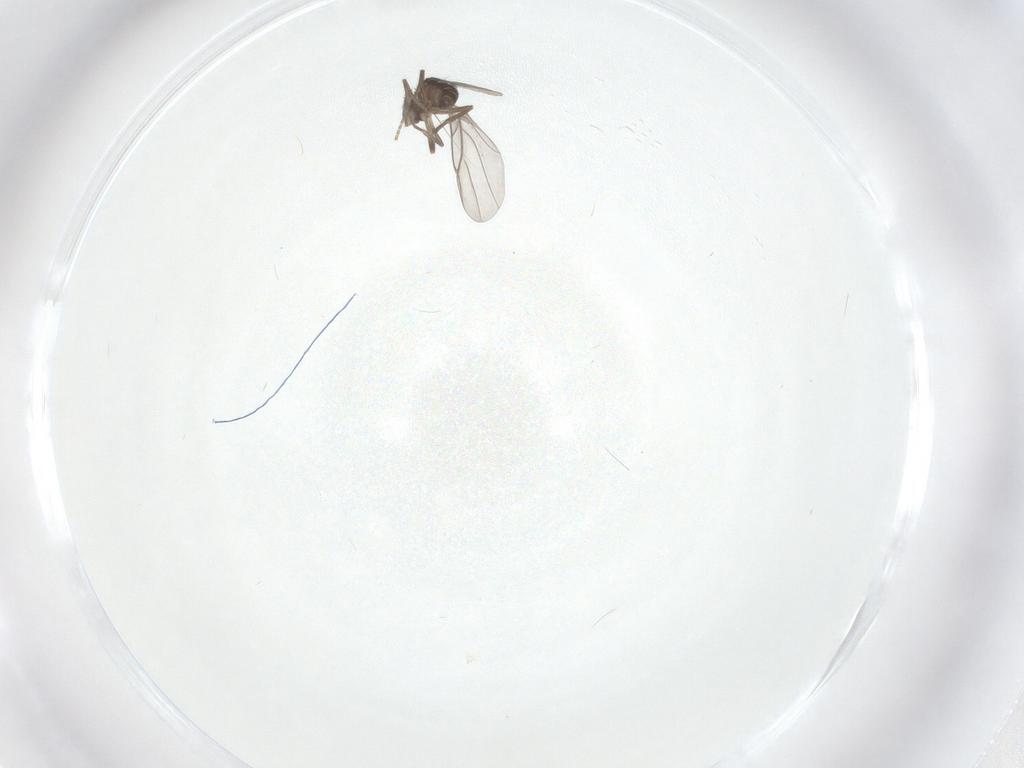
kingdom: Animalia
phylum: Arthropoda
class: Insecta
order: Diptera
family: Phoridae
